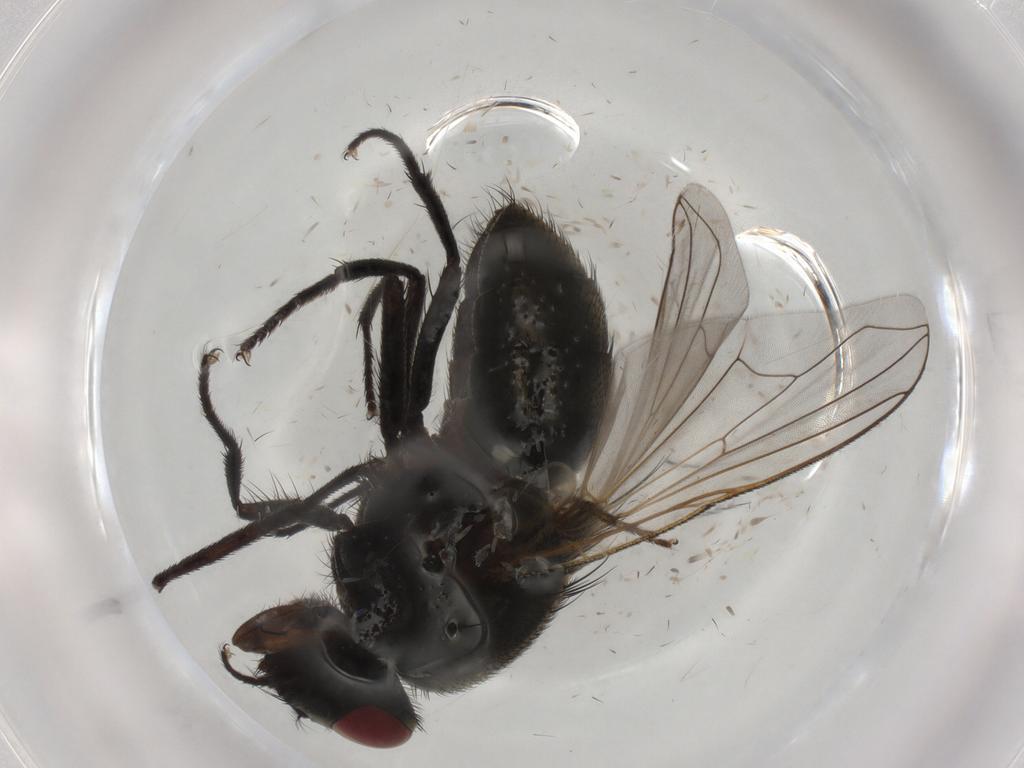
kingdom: Animalia
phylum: Arthropoda
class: Insecta
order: Diptera
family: Muscidae
